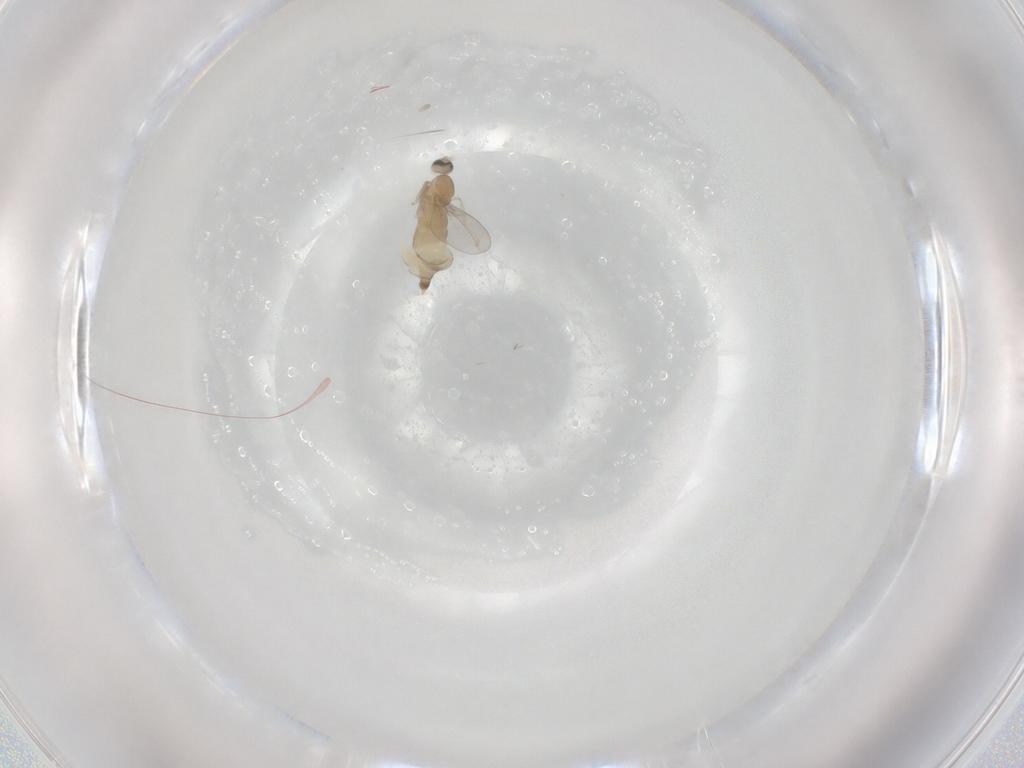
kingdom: Animalia
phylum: Arthropoda
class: Insecta
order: Diptera
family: Cecidomyiidae
